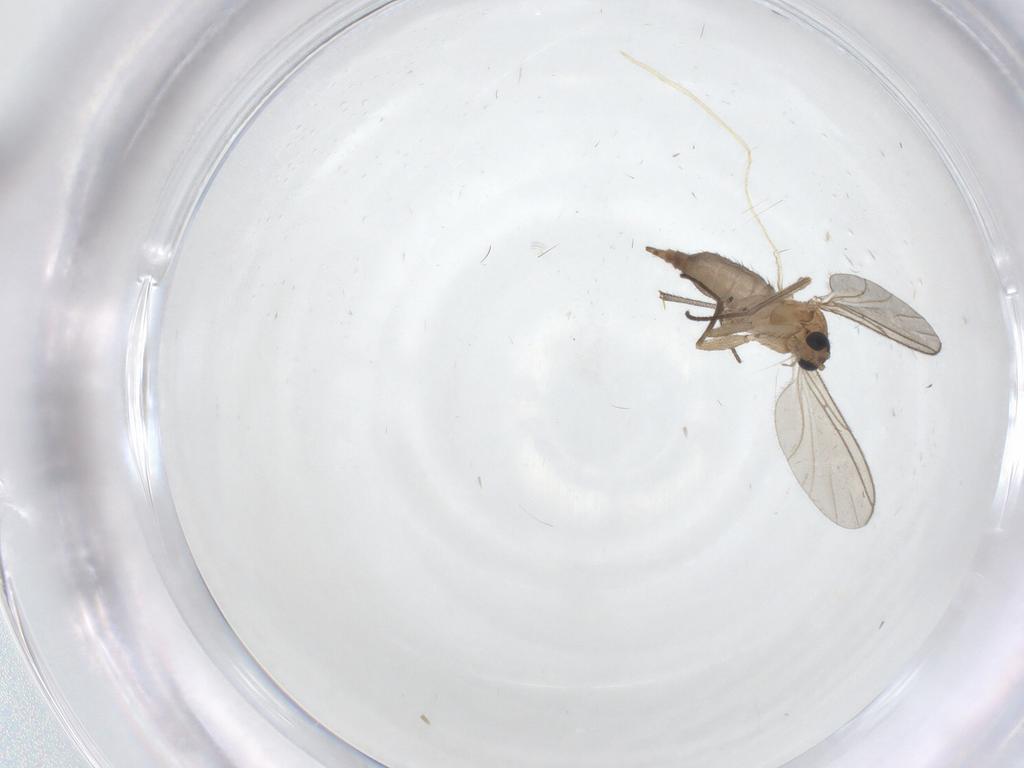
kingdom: Animalia
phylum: Arthropoda
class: Insecta
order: Diptera
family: Sciaridae
